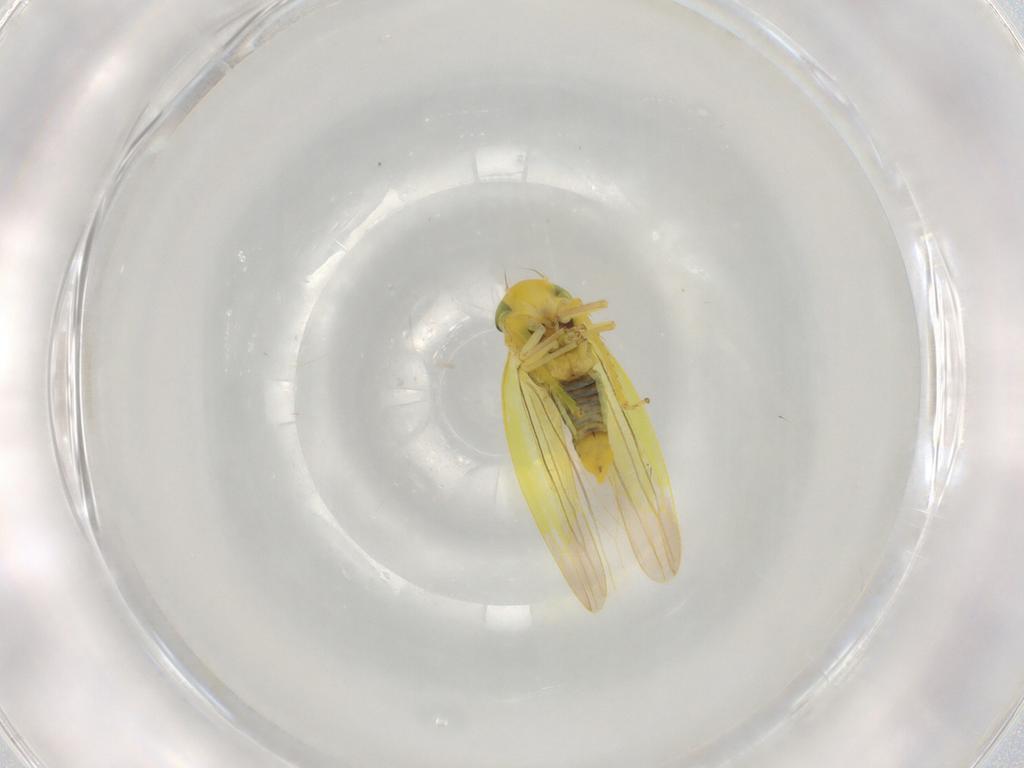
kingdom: Animalia
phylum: Arthropoda
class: Insecta
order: Hemiptera
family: Cicadellidae
